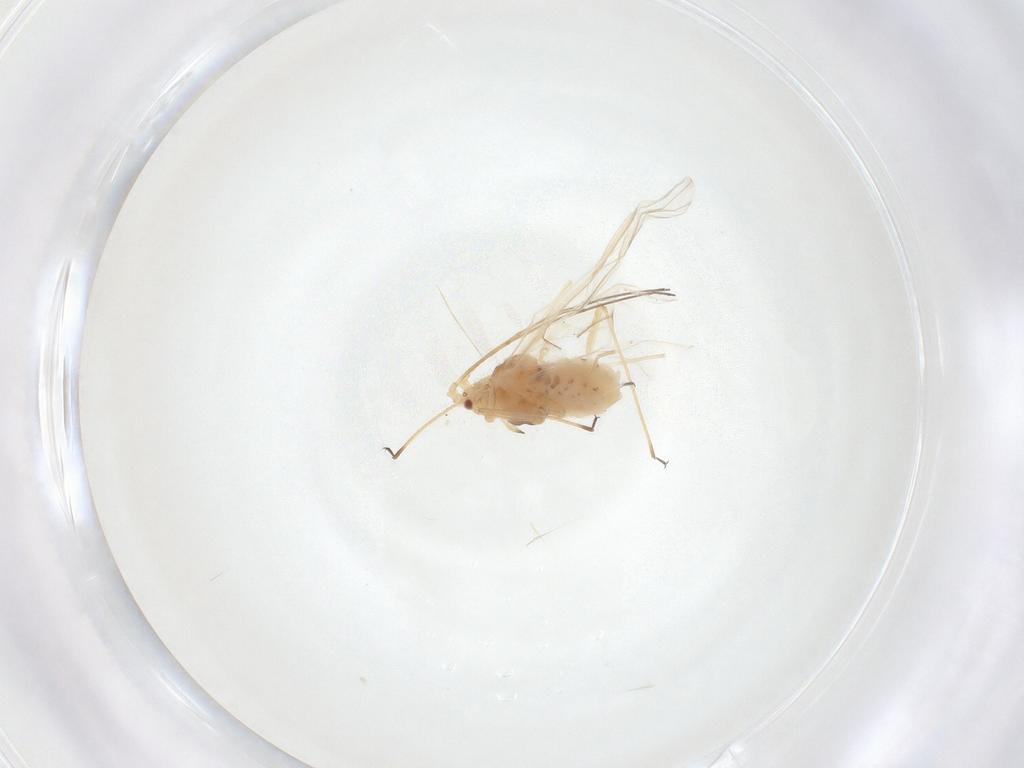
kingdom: Animalia
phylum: Arthropoda
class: Insecta
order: Hemiptera
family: Aphididae
